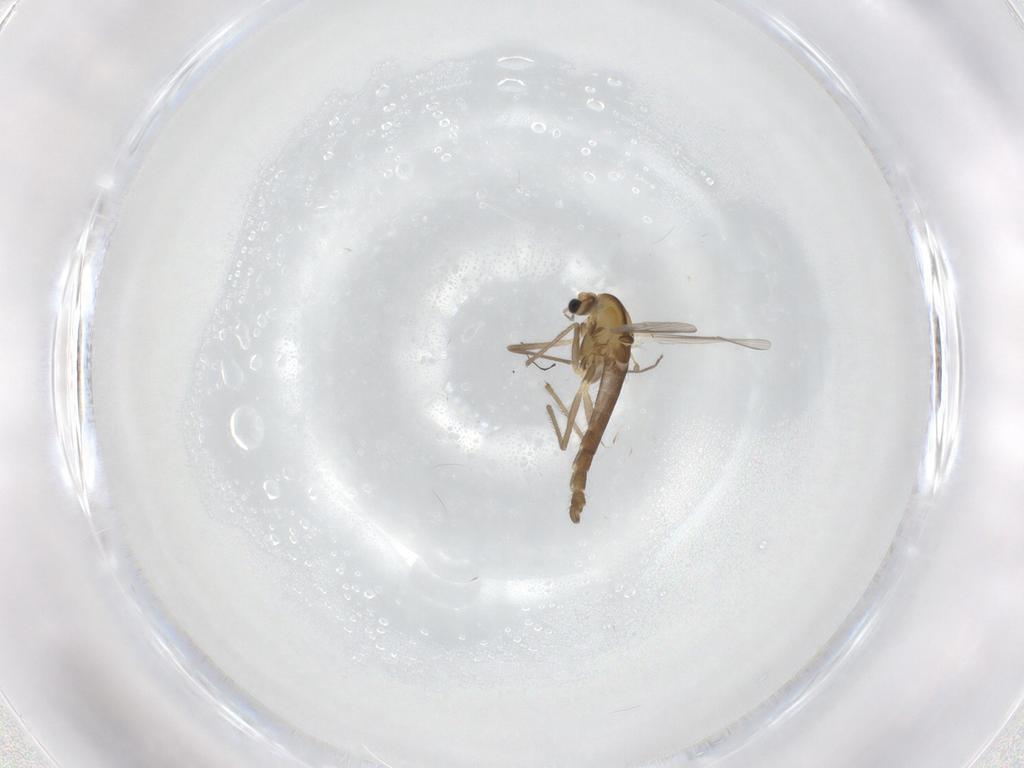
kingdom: Animalia
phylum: Arthropoda
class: Insecta
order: Diptera
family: Chironomidae
